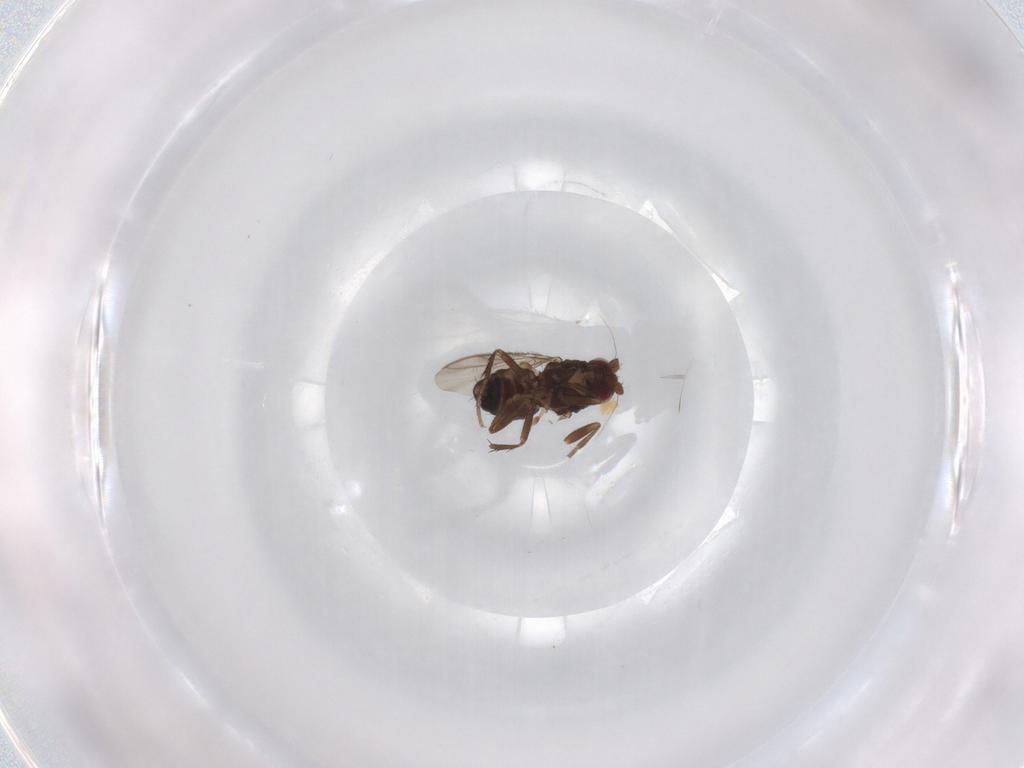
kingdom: Animalia
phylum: Arthropoda
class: Insecta
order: Diptera
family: Sphaeroceridae
